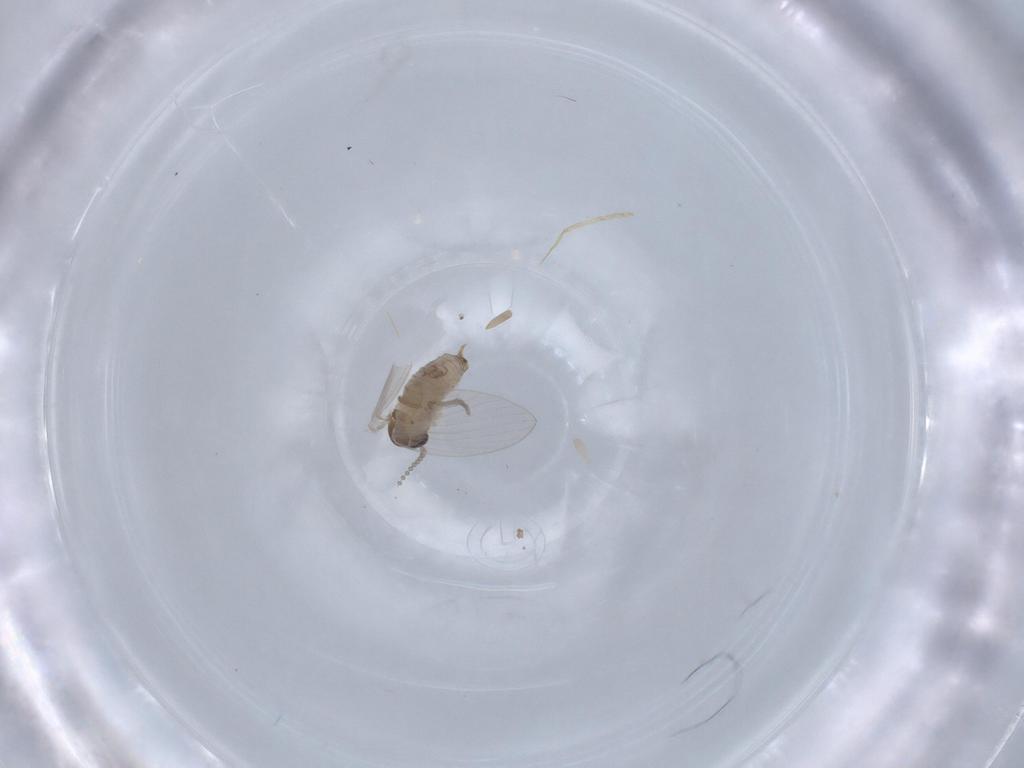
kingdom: Animalia
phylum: Arthropoda
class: Insecta
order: Diptera
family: Psychodidae
